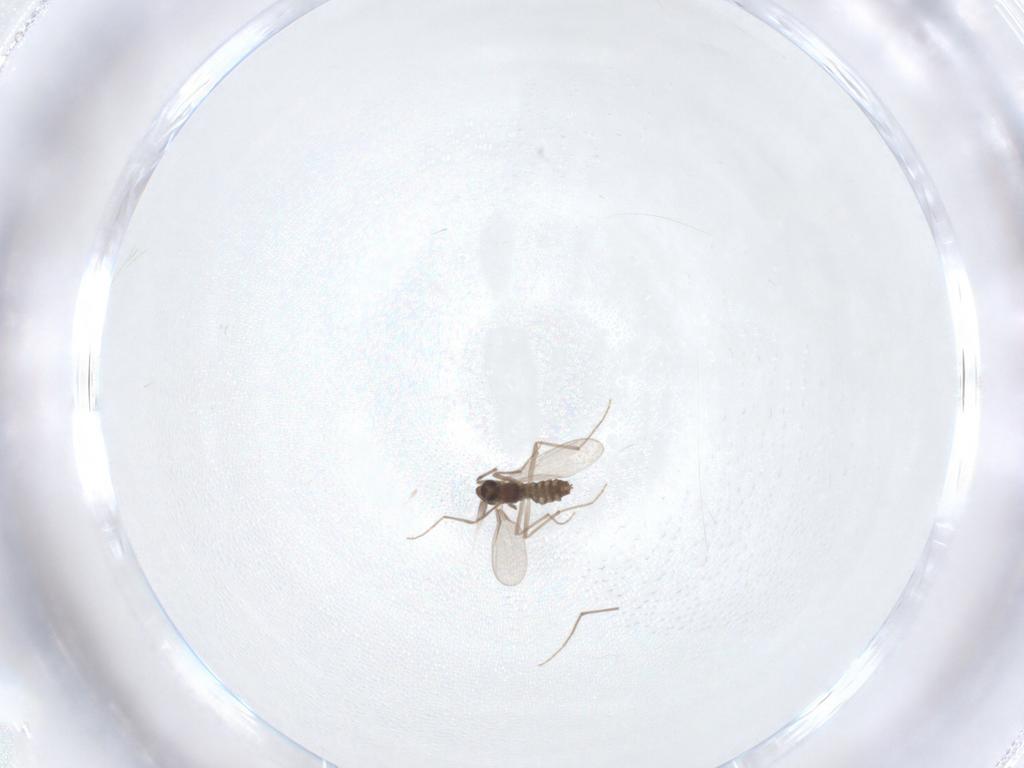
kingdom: Animalia
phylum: Arthropoda
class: Insecta
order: Diptera
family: Chironomidae
